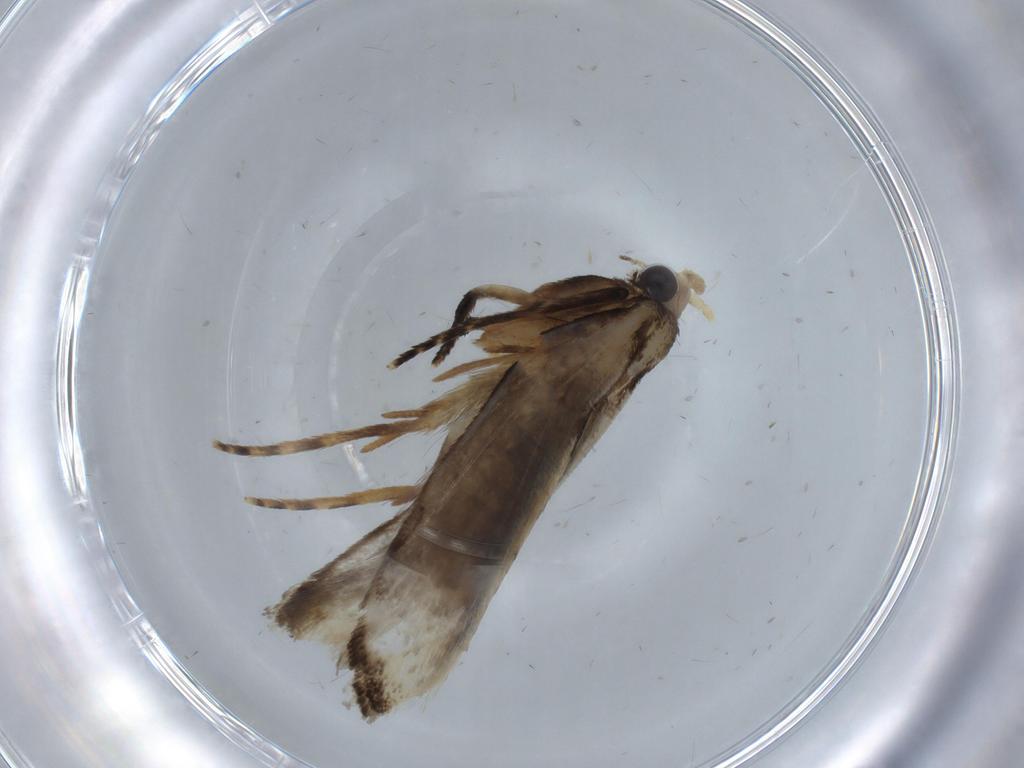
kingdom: Animalia
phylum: Arthropoda
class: Insecta
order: Lepidoptera
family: Tineidae
